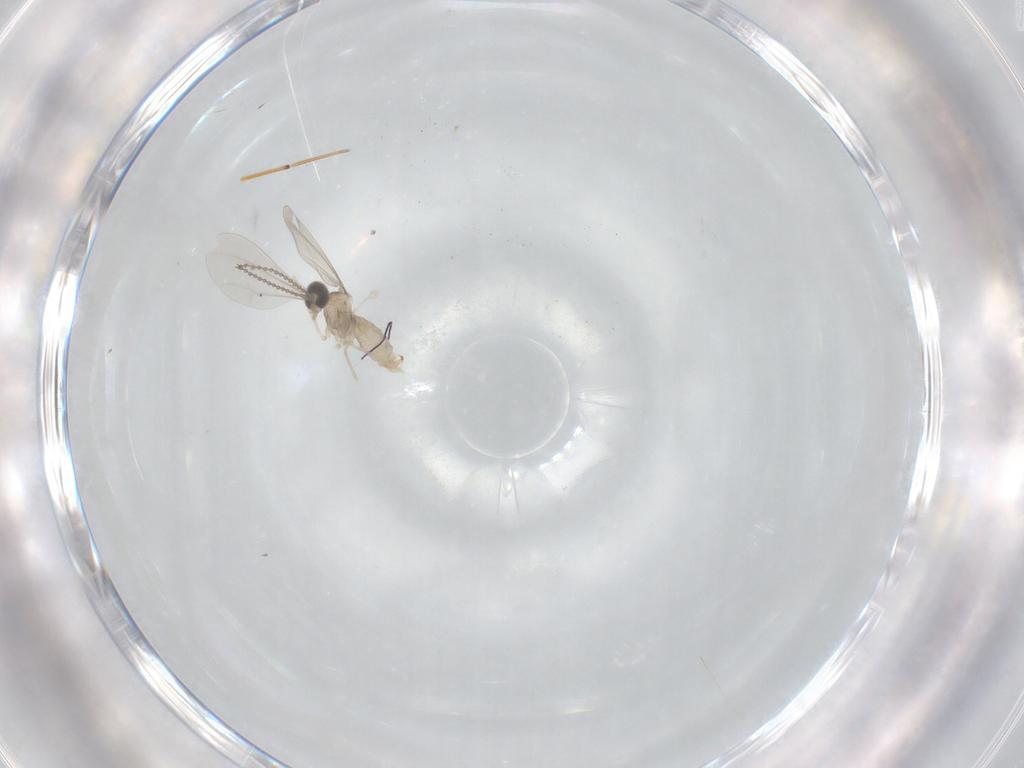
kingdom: Animalia
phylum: Arthropoda
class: Insecta
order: Diptera
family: Cecidomyiidae
